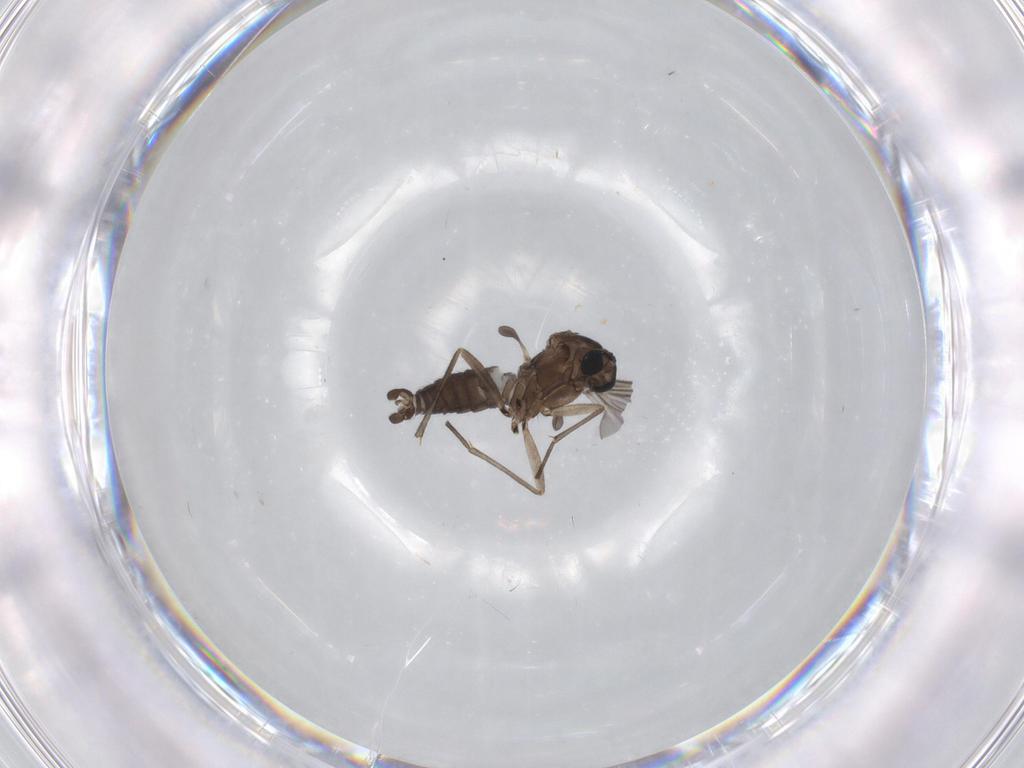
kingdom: Animalia
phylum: Arthropoda
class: Insecta
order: Diptera
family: Sciaridae
